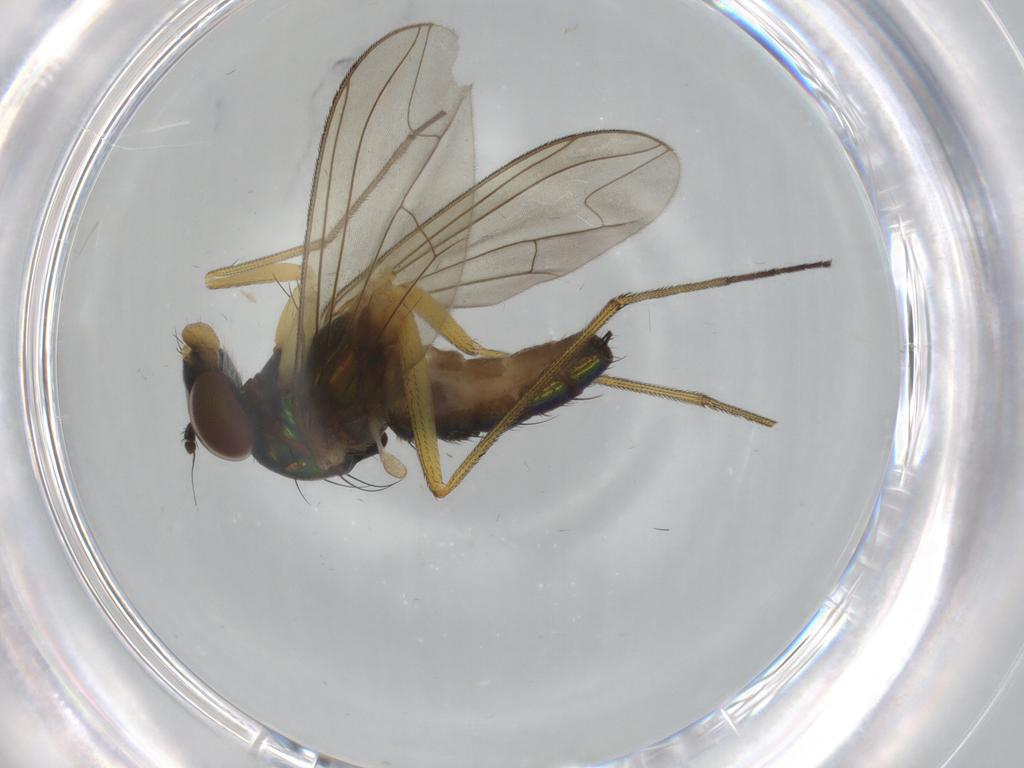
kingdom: Animalia
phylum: Arthropoda
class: Insecta
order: Diptera
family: Dolichopodidae
